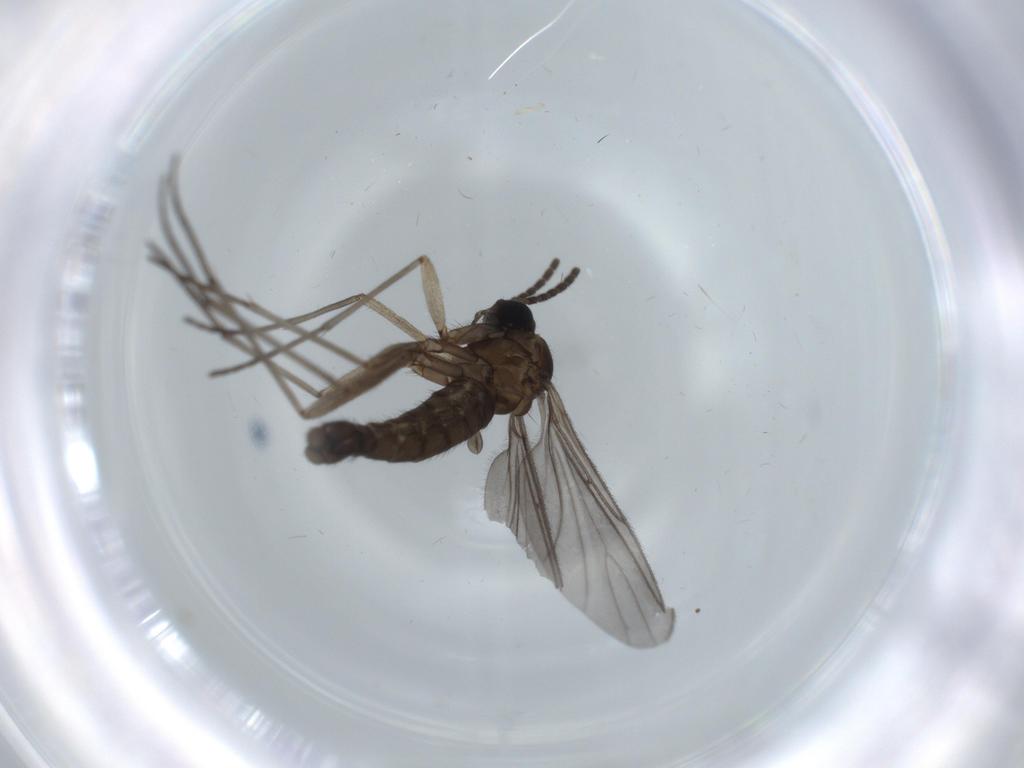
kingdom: Animalia
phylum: Arthropoda
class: Insecta
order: Diptera
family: Sciaridae
